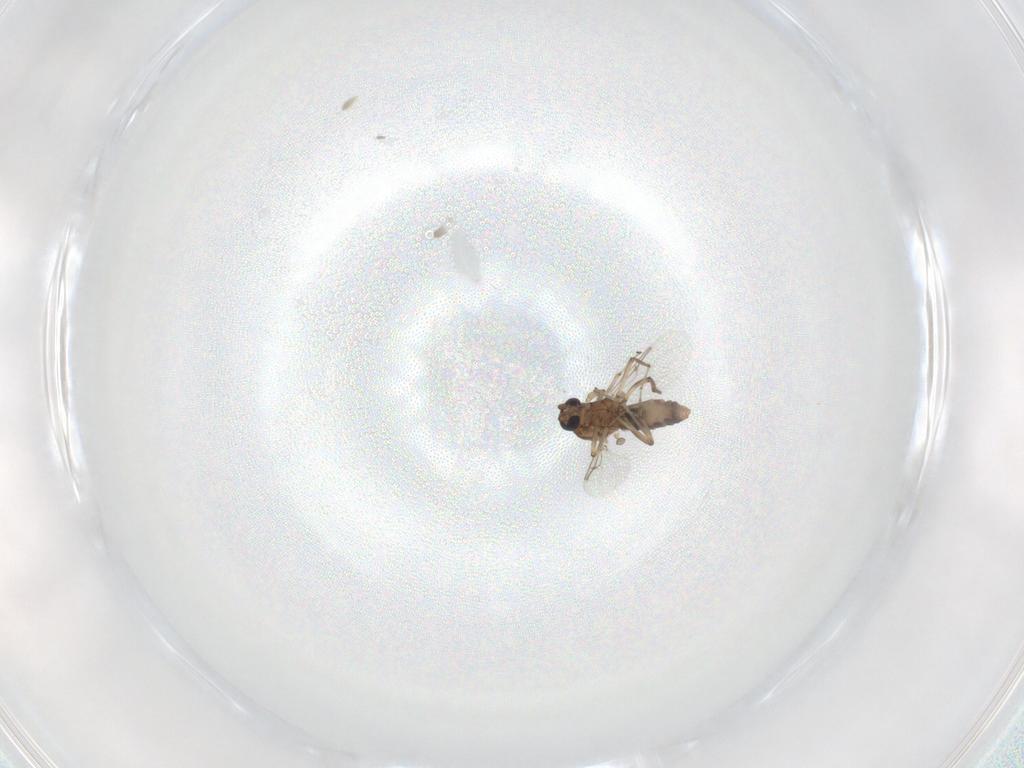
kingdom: Animalia
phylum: Arthropoda
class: Insecta
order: Diptera
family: Ceratopogonidae
